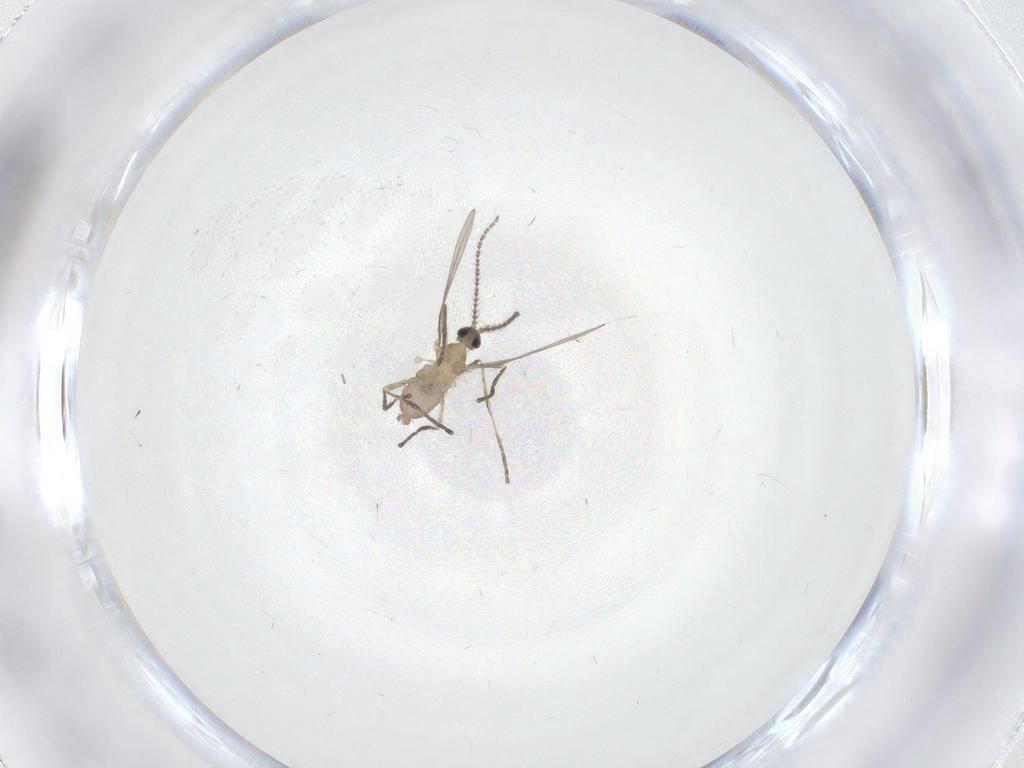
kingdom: Animalia
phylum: Arthropoda
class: Insecta
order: Diptera
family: Cecidomyiidae
